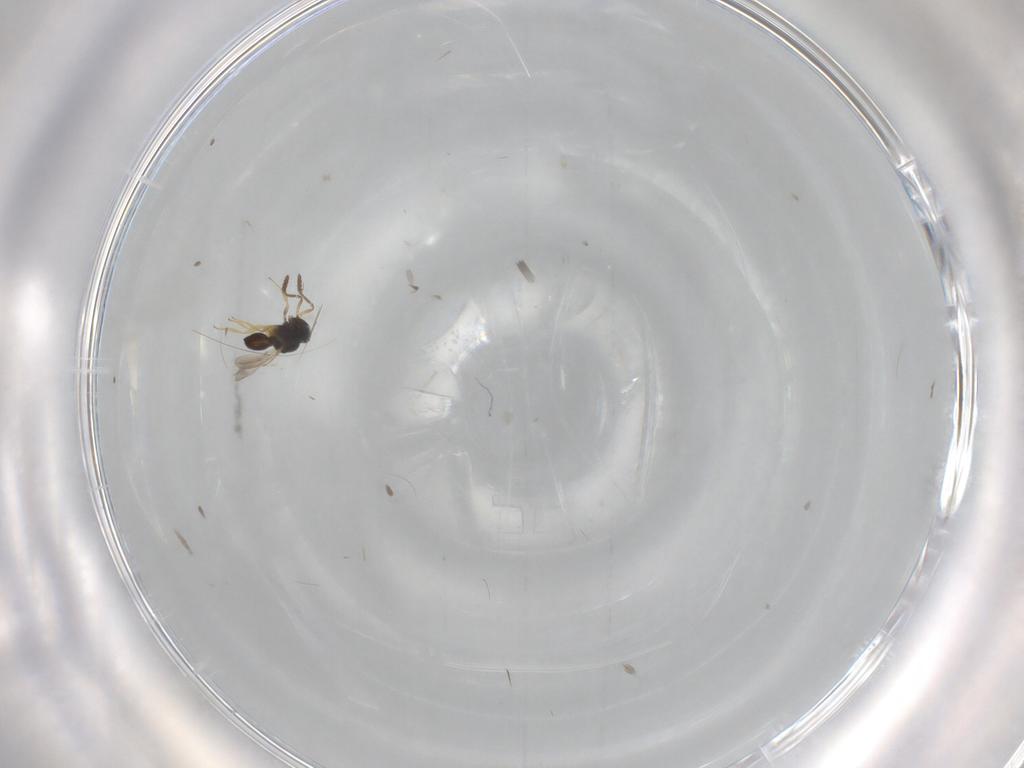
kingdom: Animalia
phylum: Arthropoda
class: Insecta
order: Hymenoptera
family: Scelionidae
